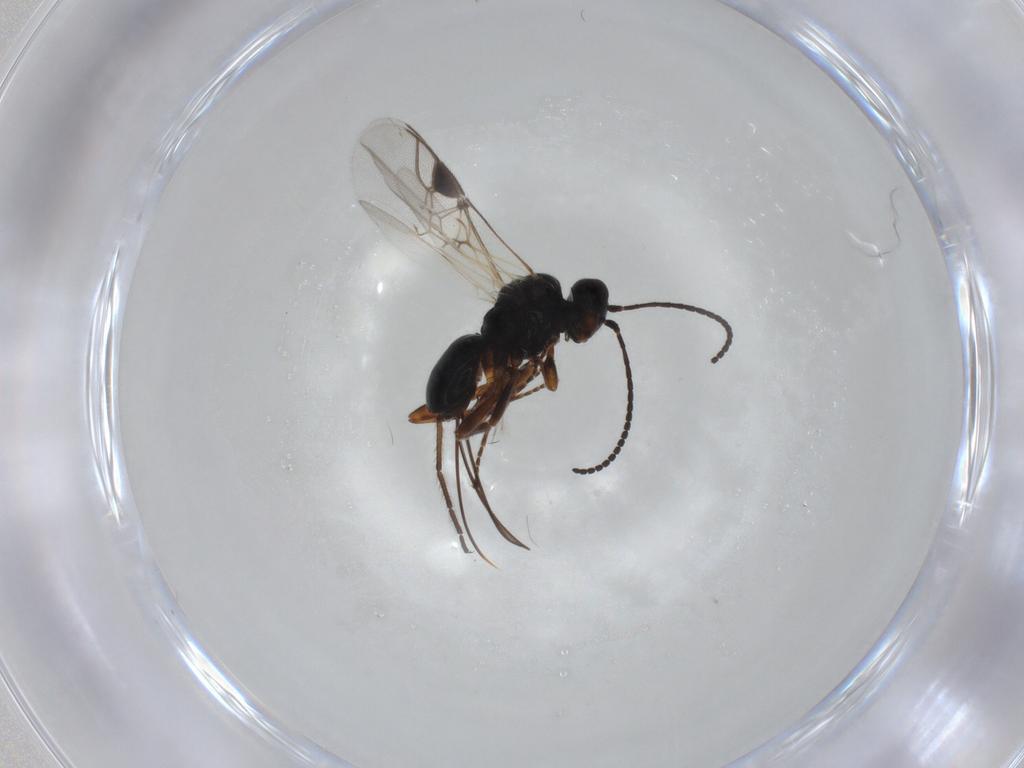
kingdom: Animalia
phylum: Arthropoda
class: Insecta
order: Hymenoptera
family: Braconidae
